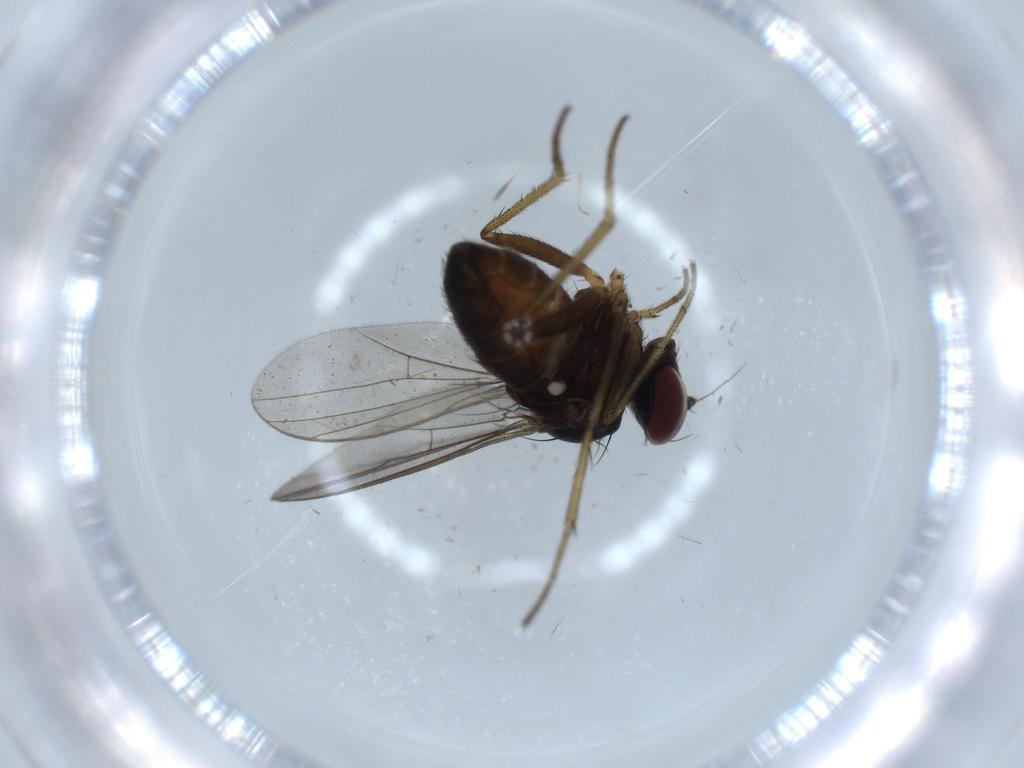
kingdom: Animalia
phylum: Arthropoda
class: Insecta
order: Diptera
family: Dolichopodidae
